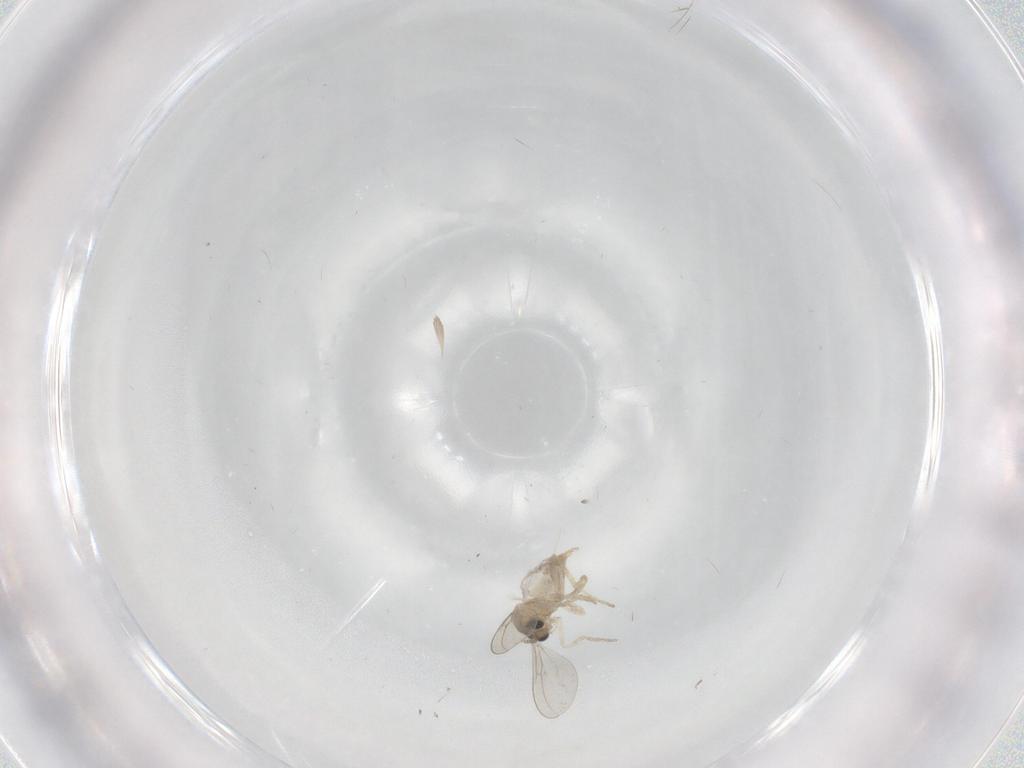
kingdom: Animalia
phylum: Arthropoda
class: Insecta
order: Diptera
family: Cecidomyiidae
